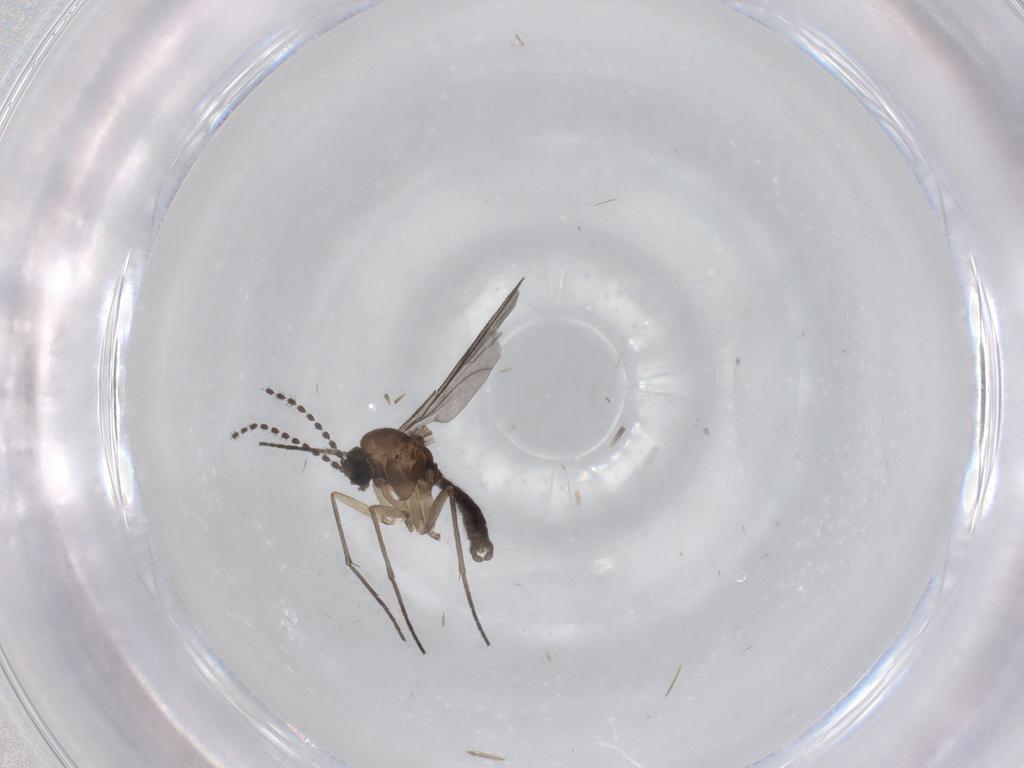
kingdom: Animalia
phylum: Arthropoda
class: Insecta
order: Diptera
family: Sciaridae
